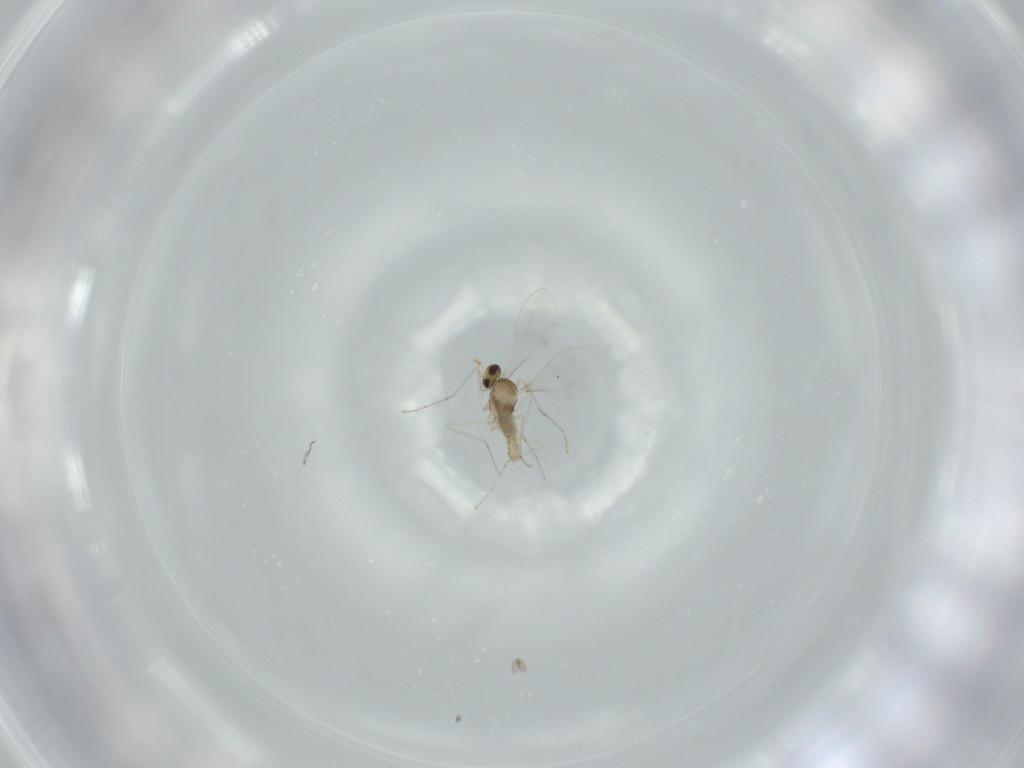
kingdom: Animalia
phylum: Arthropoda
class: Insecta
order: Diptera
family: Cecidomyiidae
